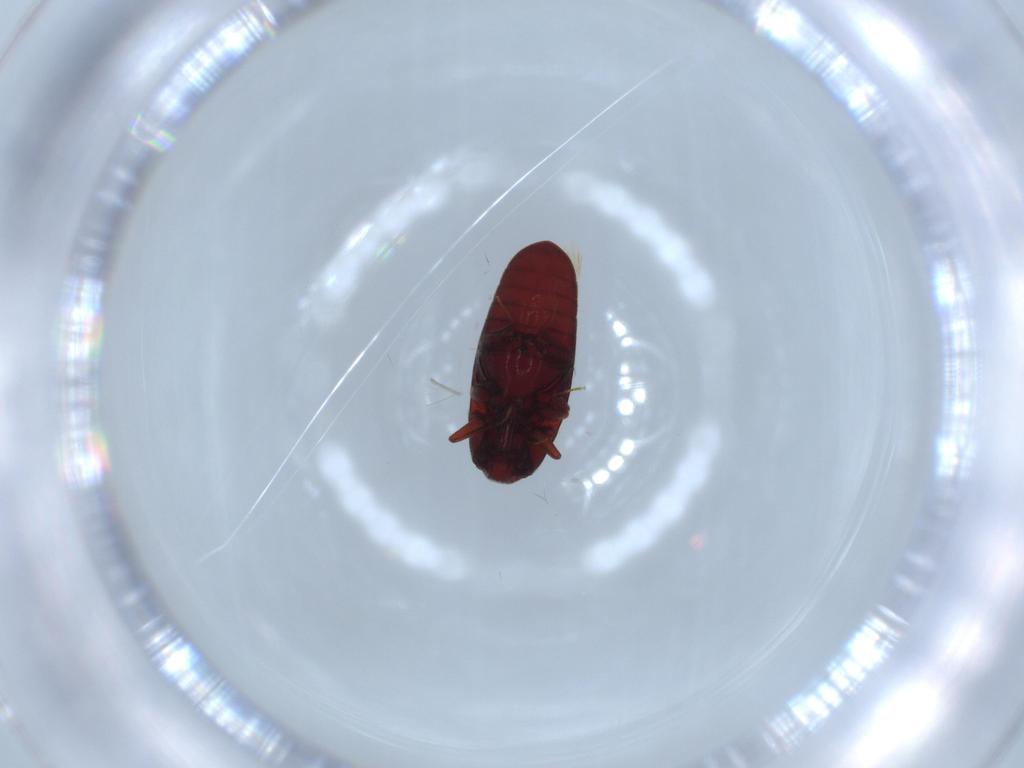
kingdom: Animalia
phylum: Arthropoda
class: Insecta
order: Coleoptera
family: Throscidae
